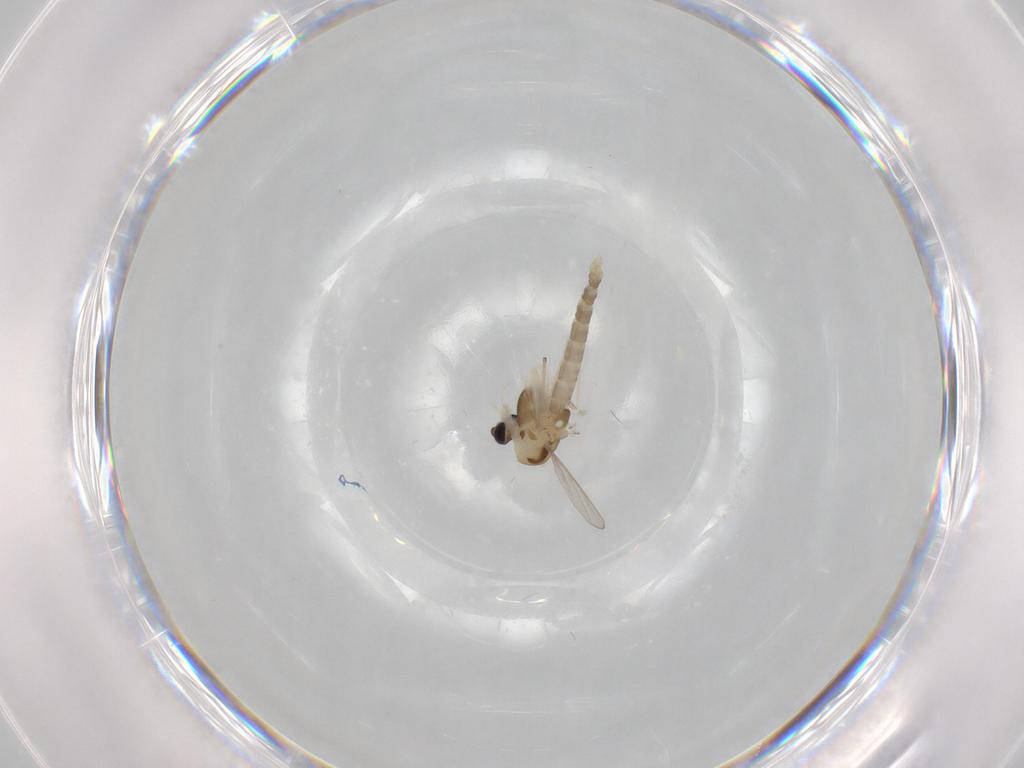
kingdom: Animalia
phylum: Arthropoda
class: Insecta
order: Diptera
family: Chironomidae
